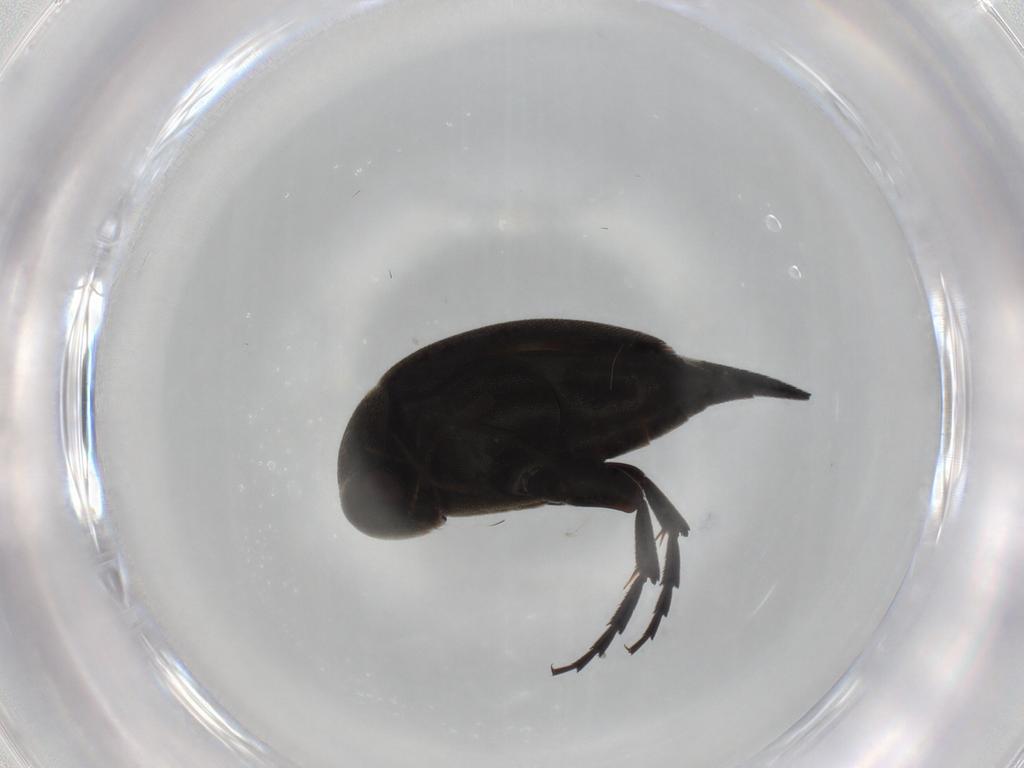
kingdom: Animalia
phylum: Arthropoda
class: Insecta
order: Coleoptera
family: Mordellidae
